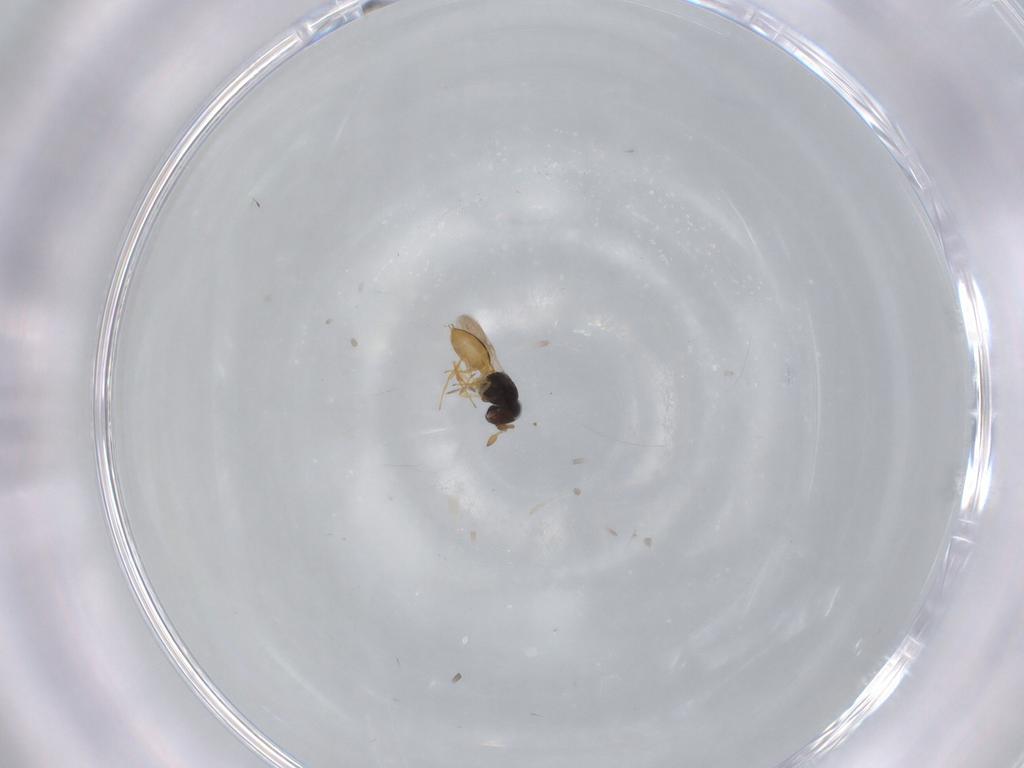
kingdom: Animalia
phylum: Arthropoda
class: Insecta
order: Hymenoptera
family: Scelionidae
